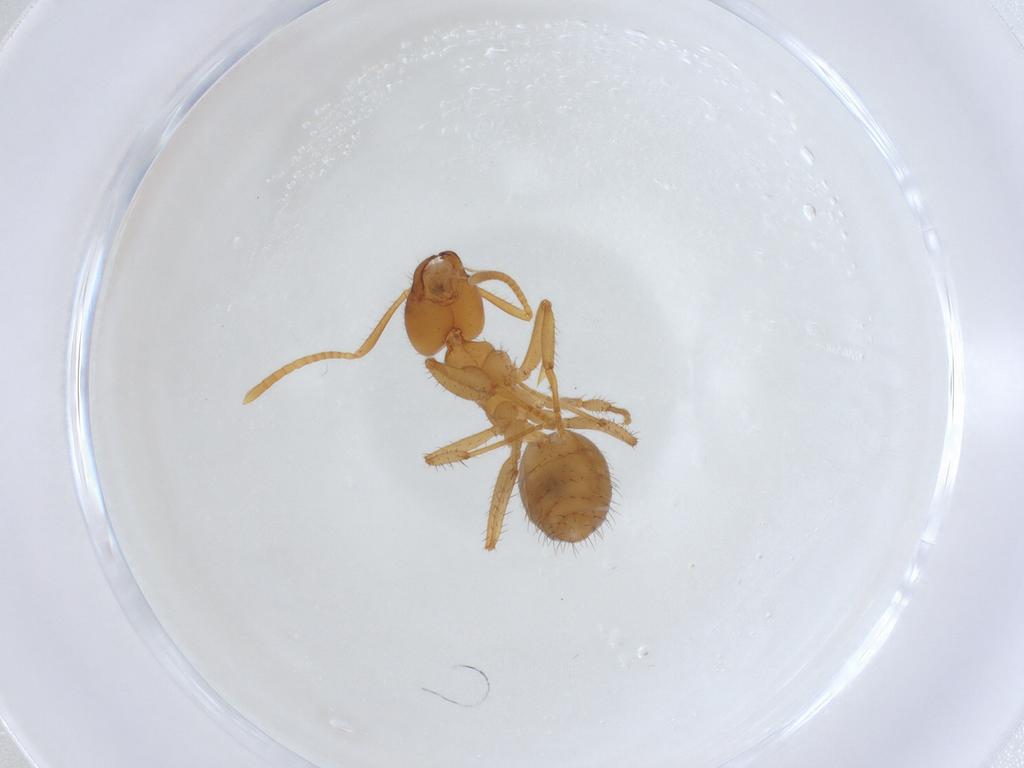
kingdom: Animalia
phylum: Arthropoda
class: Insecta
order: Hymenoptera
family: Formicidae
